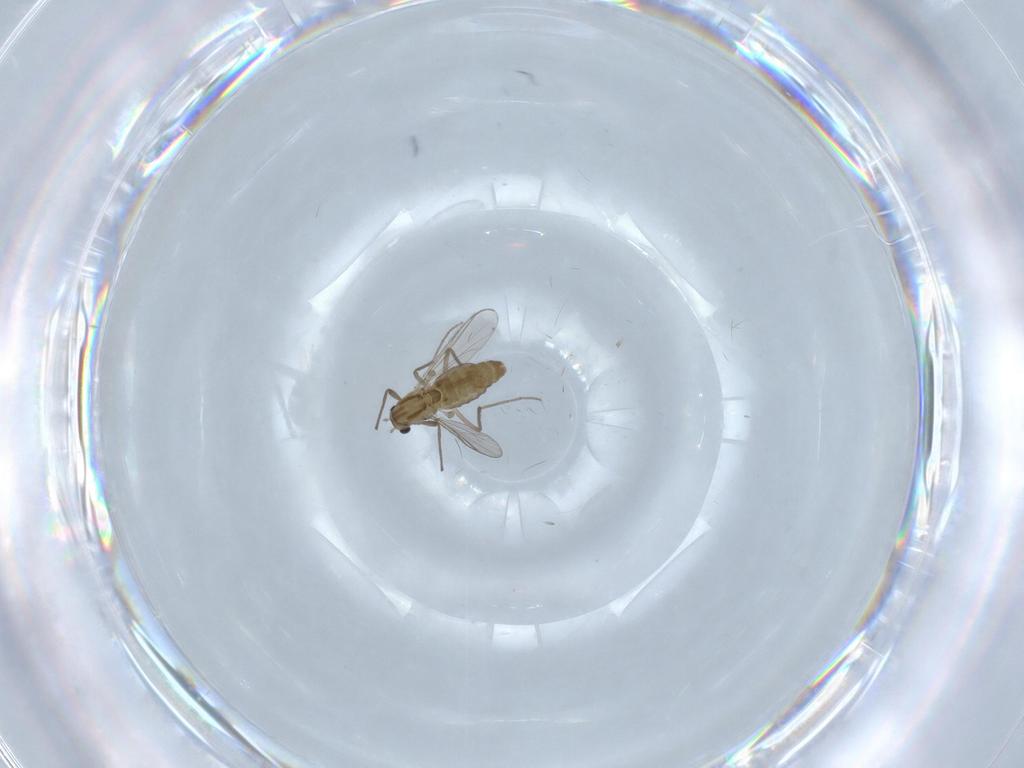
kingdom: Animalia
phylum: Arthropoda
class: Insecta
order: Diptera
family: Chironomidae
